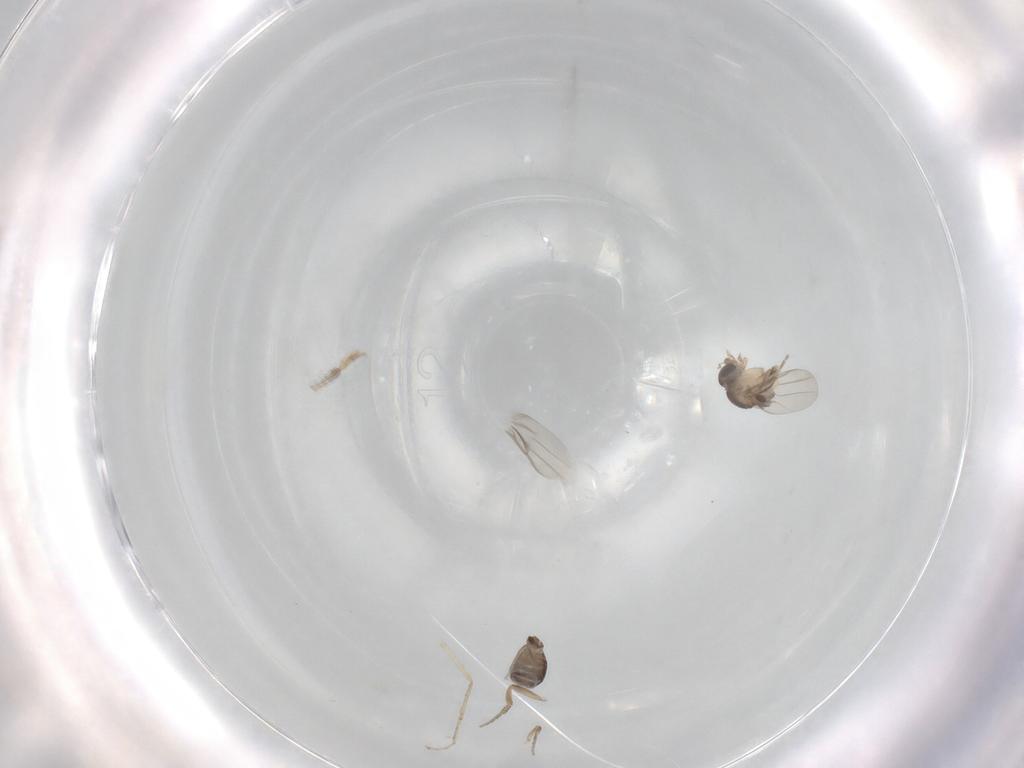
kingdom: Animalia
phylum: Arthropoda
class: Insecta
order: Diptera
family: Phoridae
